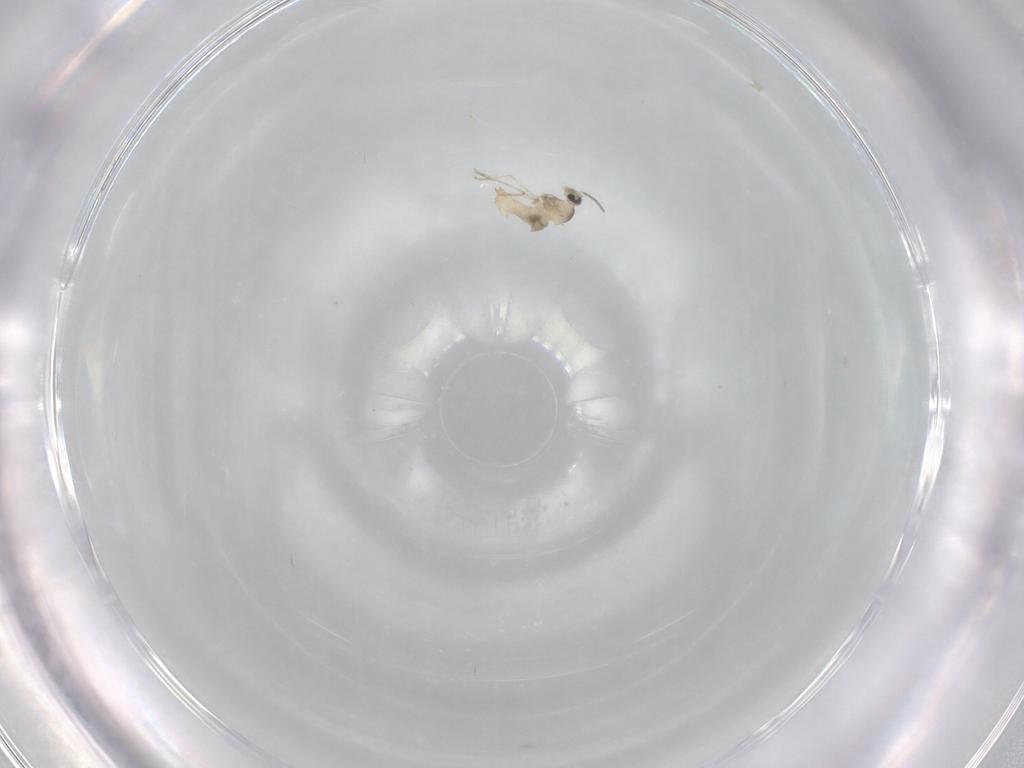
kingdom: Animalia
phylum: Arthropoda
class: Insecta
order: Diptera
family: Cecidomyiidae
